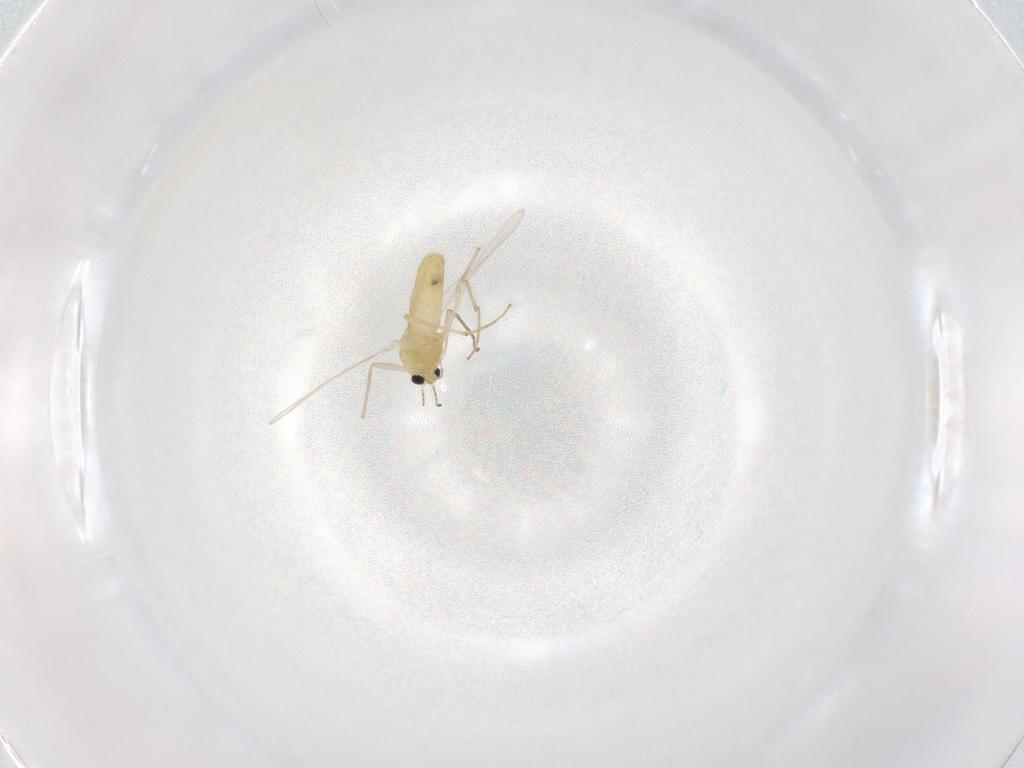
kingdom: Animalia
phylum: Arthropoda
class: Insecta
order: Diptera
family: Chironomidae
